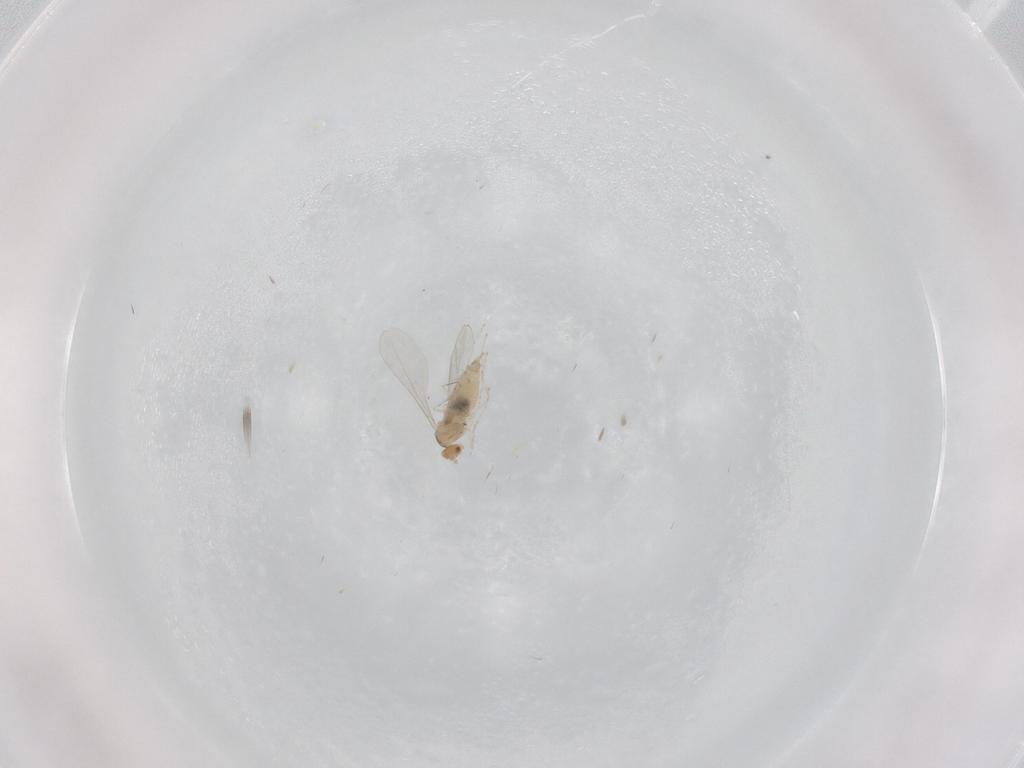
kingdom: Animalia
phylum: Arthropoda
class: Insecta
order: Diptera
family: Cecidomyiidae
